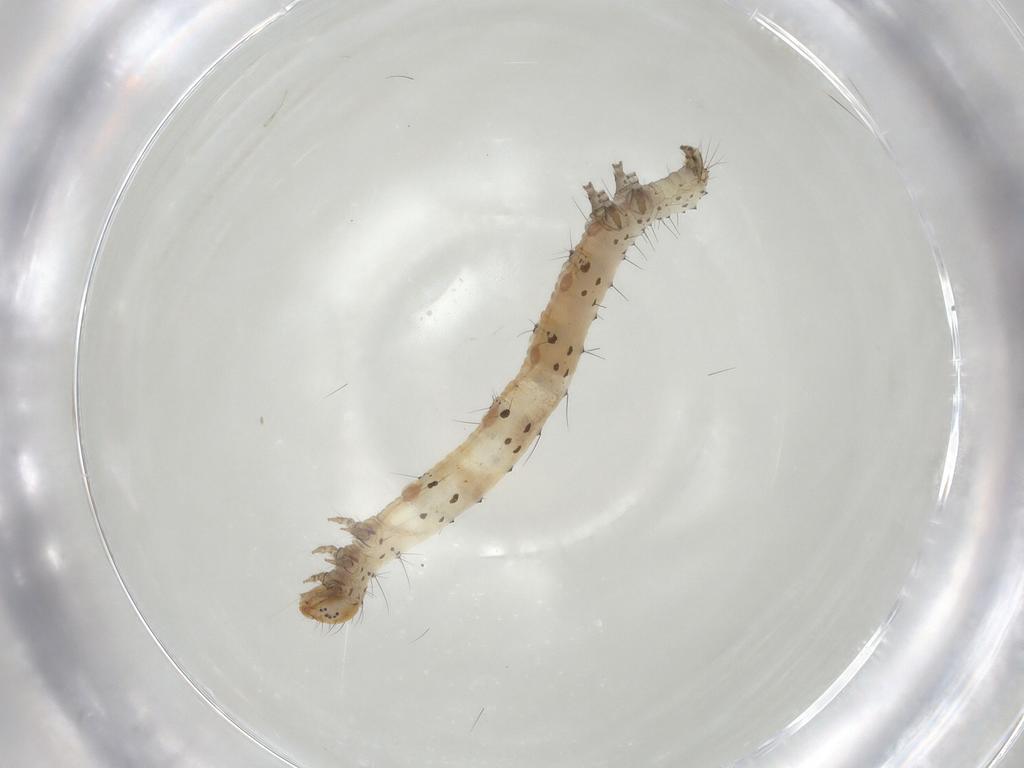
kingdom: Animalia
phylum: Arthropoda
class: Insecta
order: Lepidoptera
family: Erebidae
